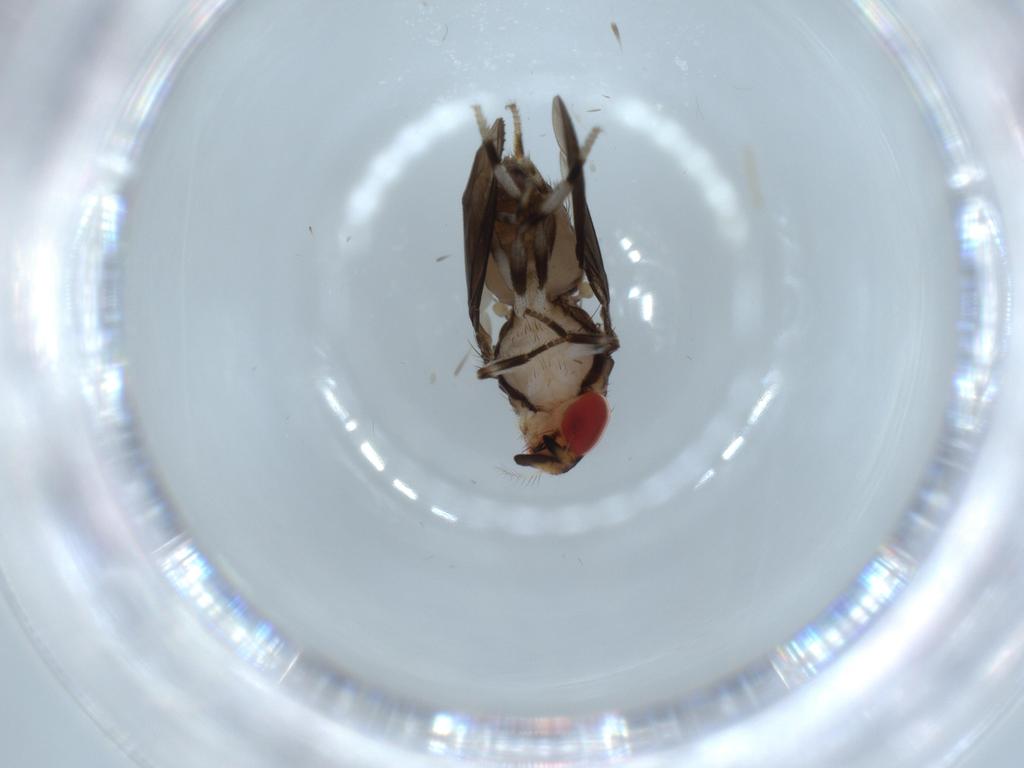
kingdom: Animalia
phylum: Arthropoda
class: Insecta
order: Diptera
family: Drosophilidae
